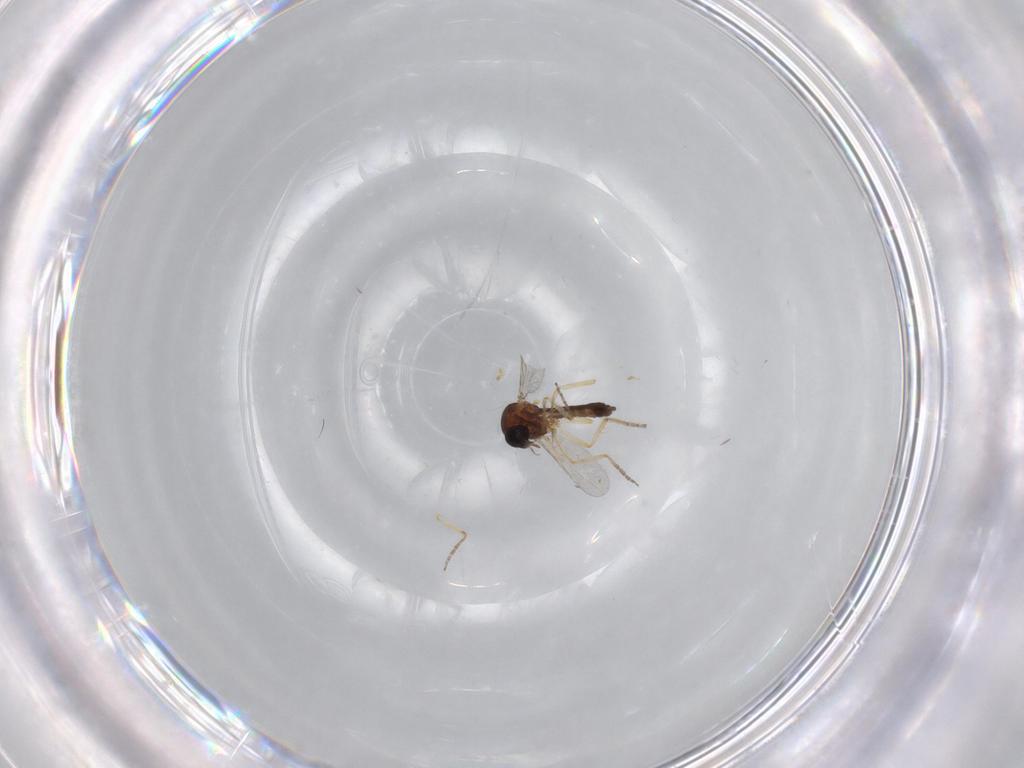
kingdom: Animalia
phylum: Arthropoda
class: Insecta
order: Diptera
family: Ceratopogonidae
